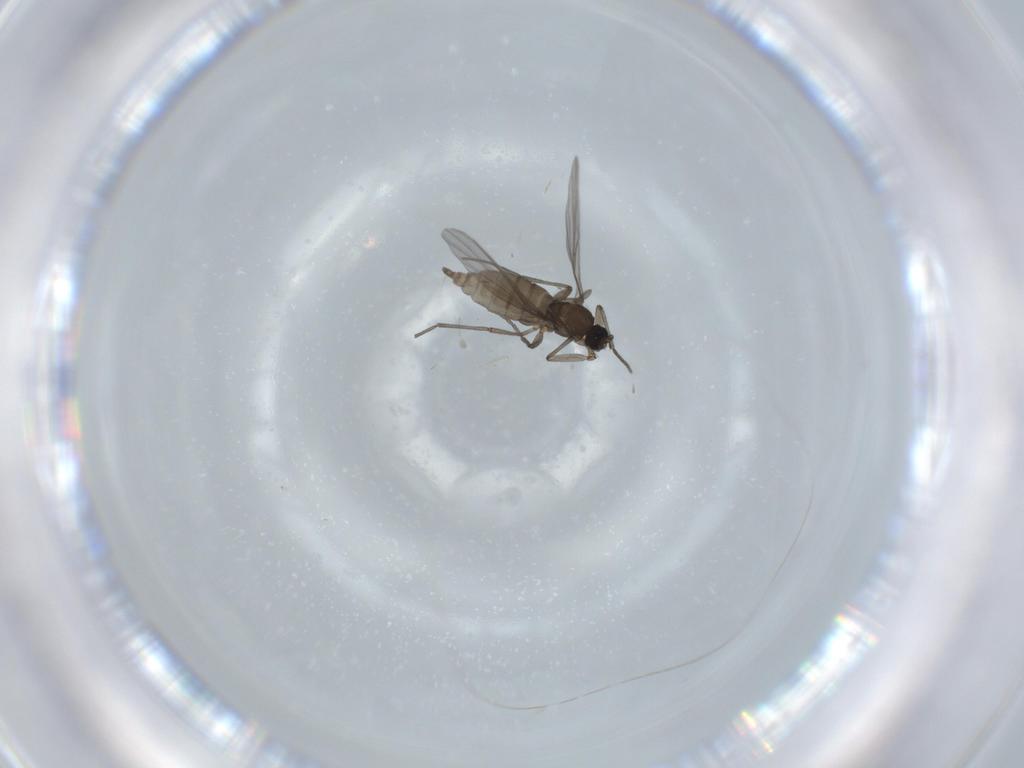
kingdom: Animalia
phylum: Arthropoda
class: Insecta
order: Diptera
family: Sciaridae
